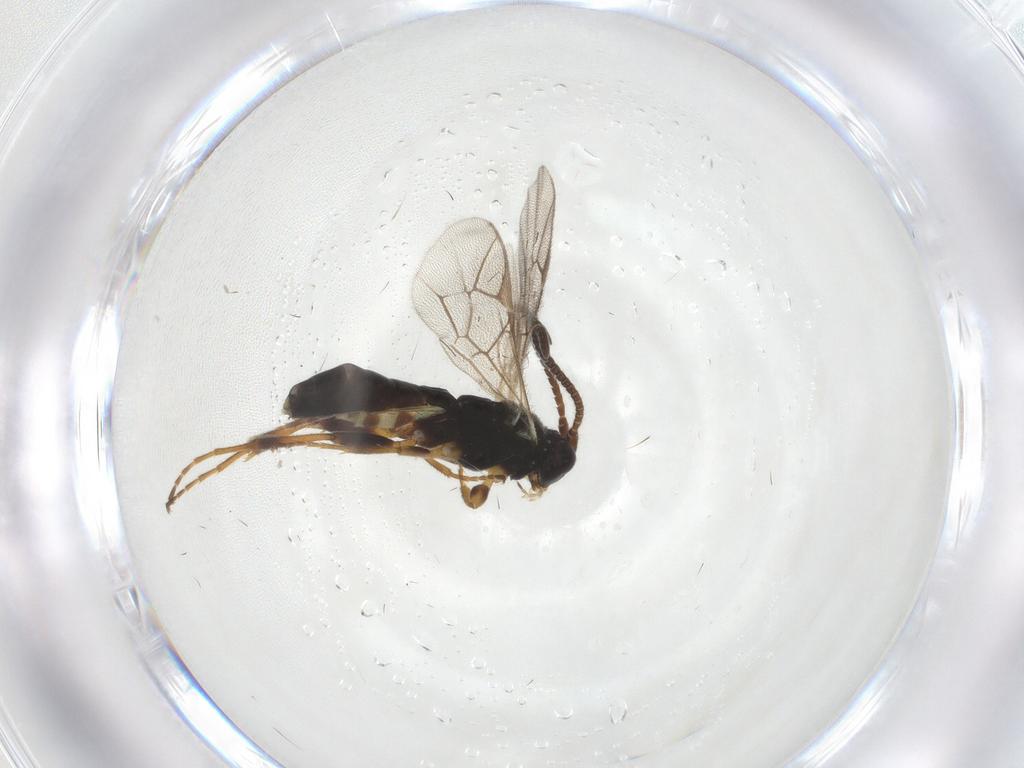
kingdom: Animalia
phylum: Arthropoda
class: Insecta
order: Hymenoptera
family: Ichneumonidae
